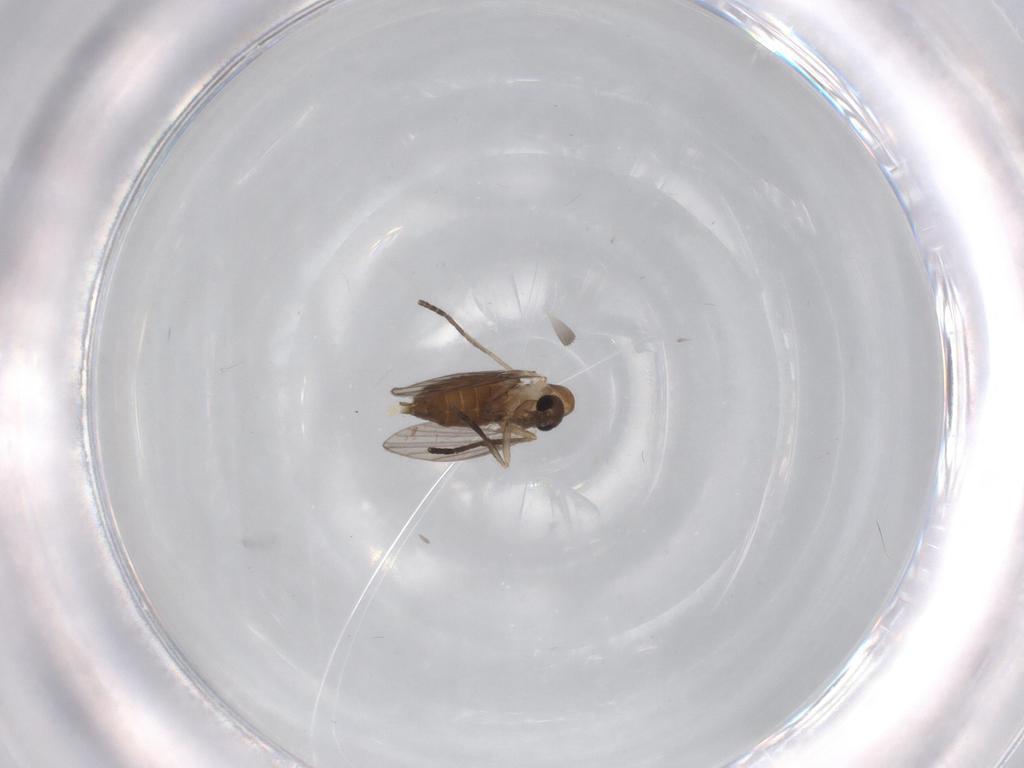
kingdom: Animalia
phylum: Arthropoda
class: Insecta
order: Diptera
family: Psychodidae
